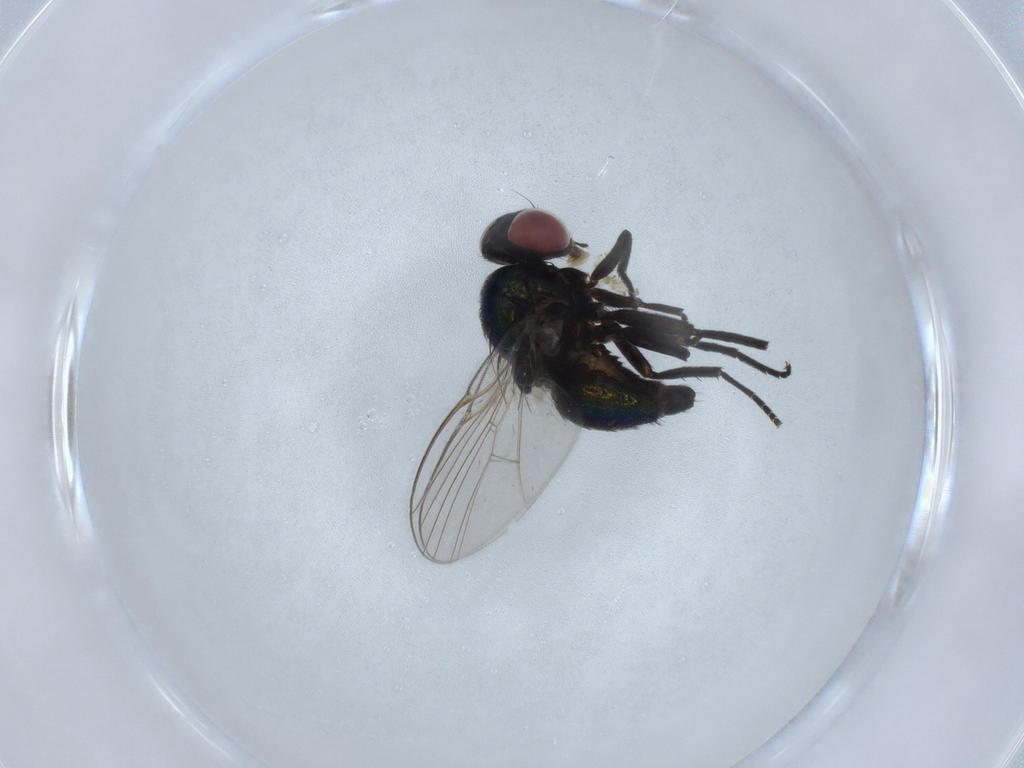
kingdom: Animalia
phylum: Arthropoda
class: Insecta
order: Diptera
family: Agromyzidae
